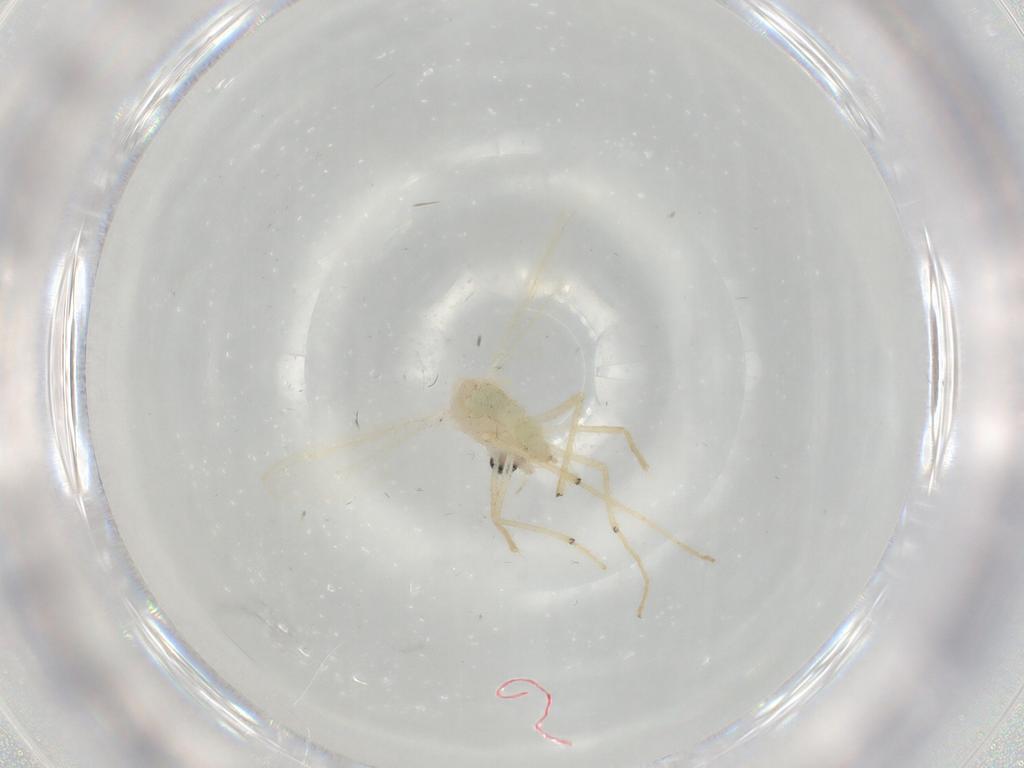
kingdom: Animalia
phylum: Arthropoda
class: Insecta
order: Diptera
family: Chironomidae
